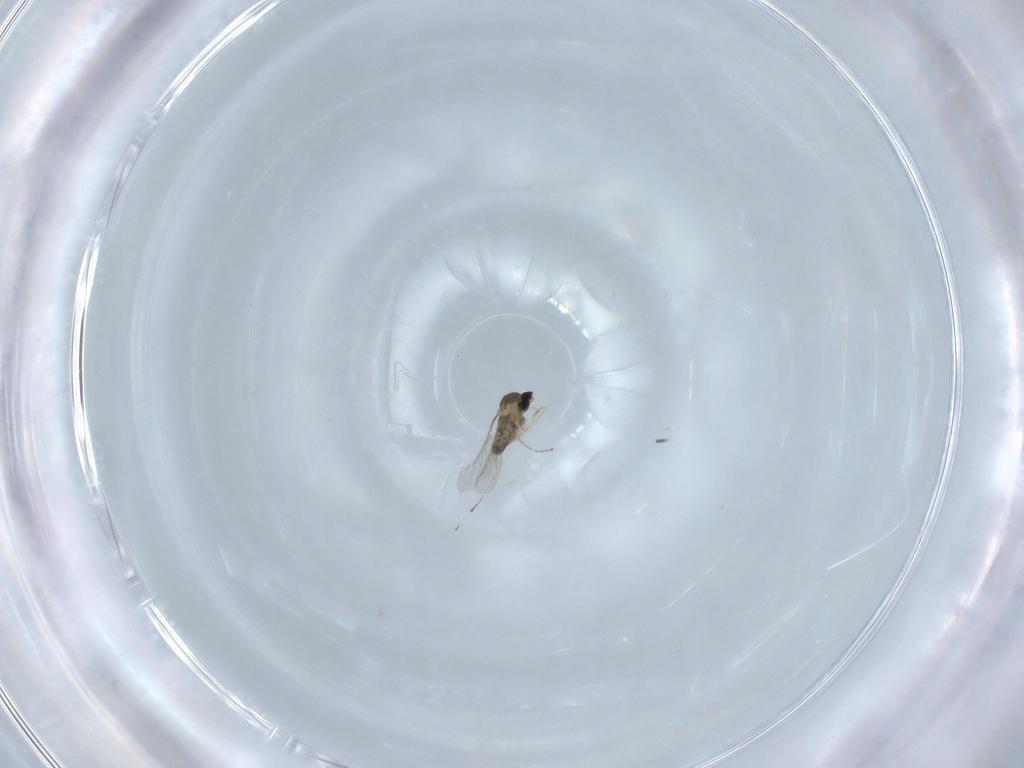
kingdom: Animalia
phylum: Arthropoda
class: Insecta
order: Diptera
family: Cecidomyiidae
